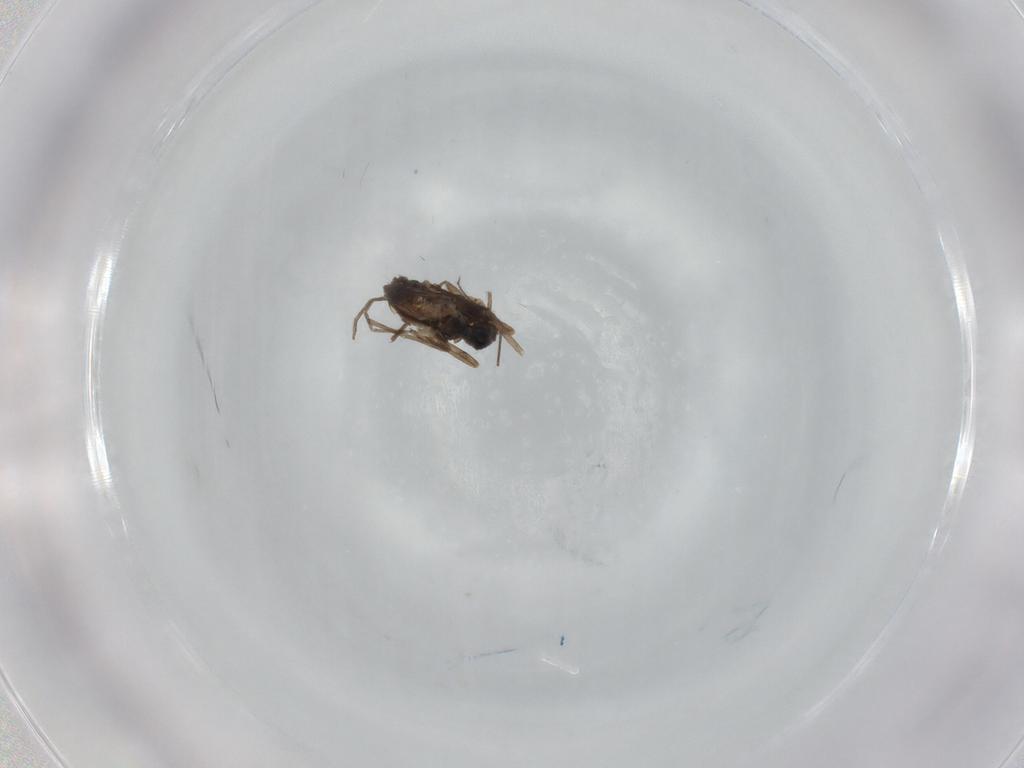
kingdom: Animalia
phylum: Arthropoda
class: Insecta
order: Diptera
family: Chironomidae
